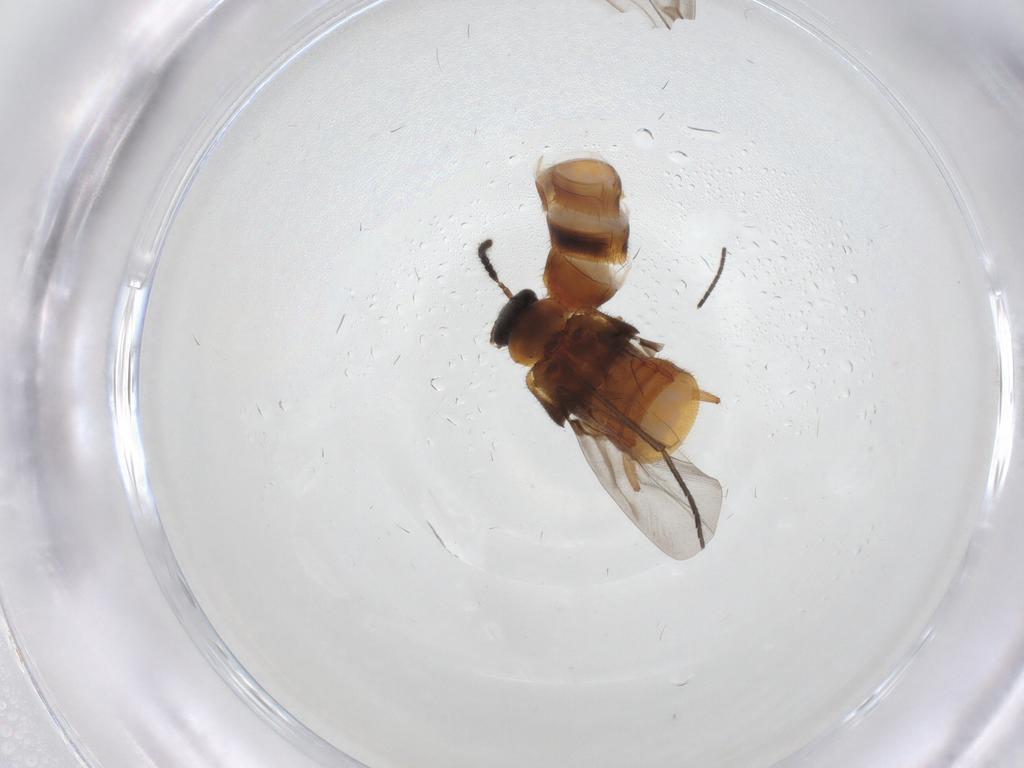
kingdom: Animalia
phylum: Arthropoda
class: Insecta
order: Coleoptera
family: Staphylinidae
